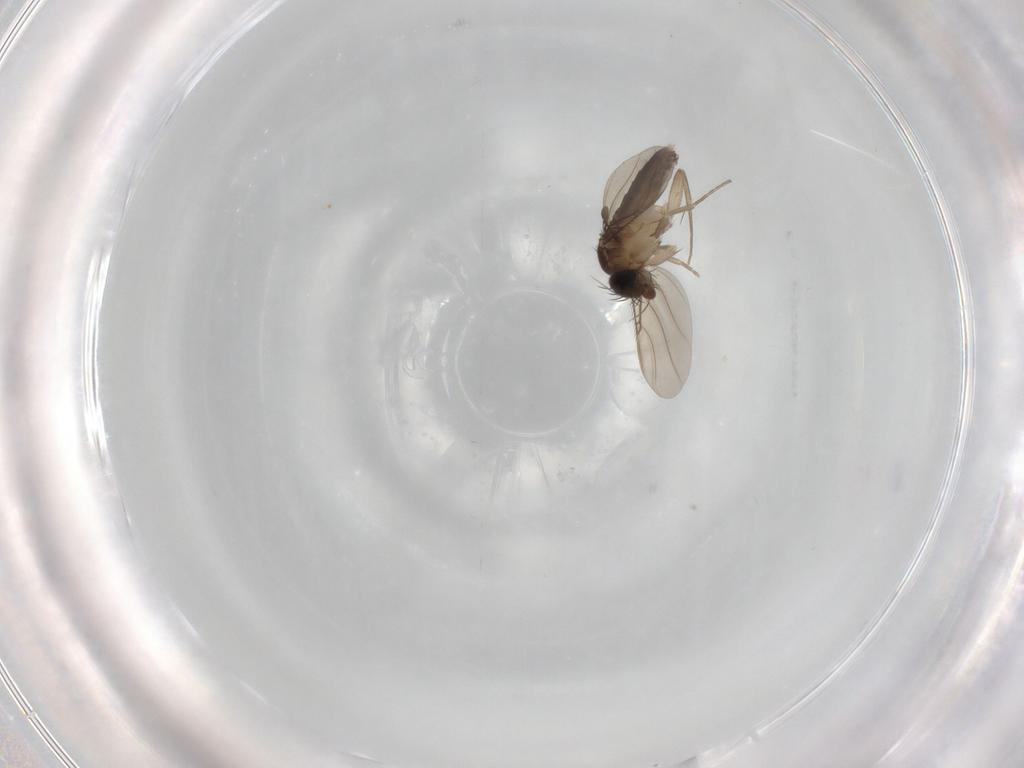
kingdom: Animalia
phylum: Arthropoda
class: Insecta
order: Diptera
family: Phoridae
